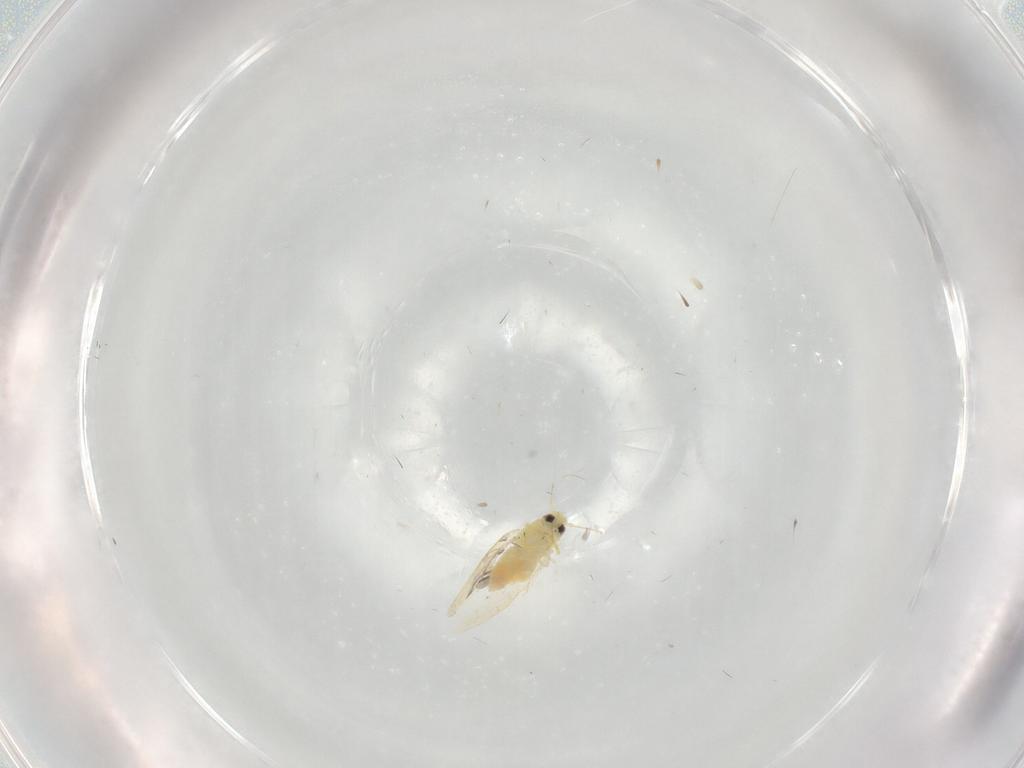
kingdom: Animalia
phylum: Arthropoda
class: Insecta
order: Hemiptera
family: Aleyrodidae
